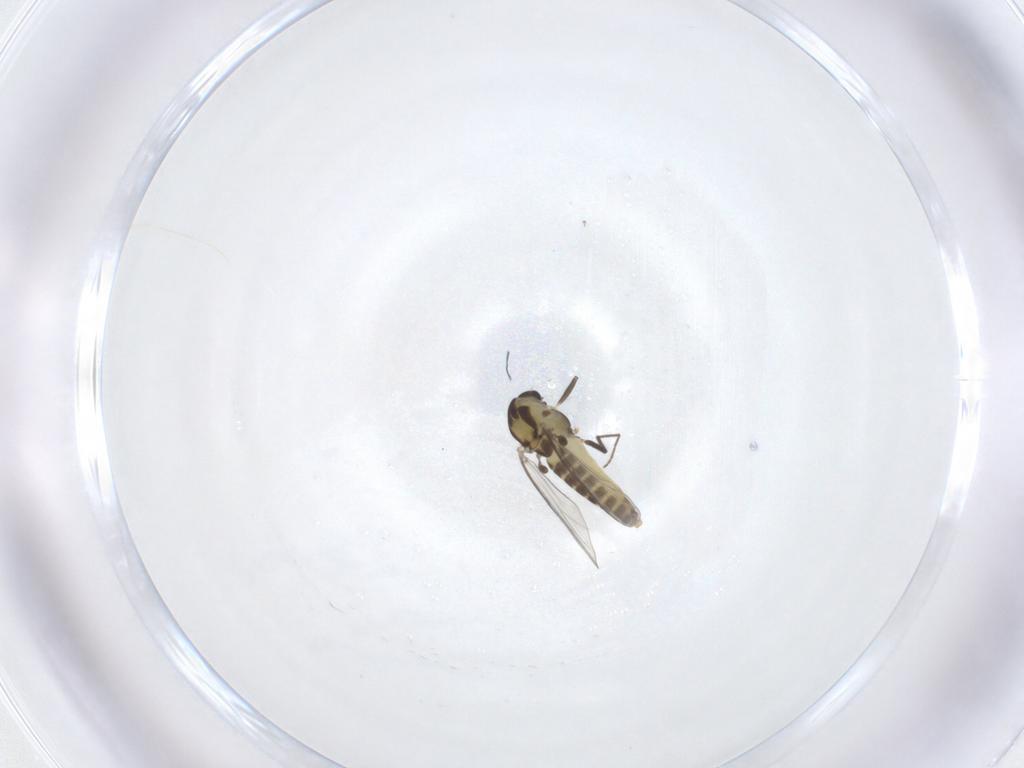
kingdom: Animalia
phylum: Arthropoda
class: Insecta
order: Diptera
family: Chironomidae
